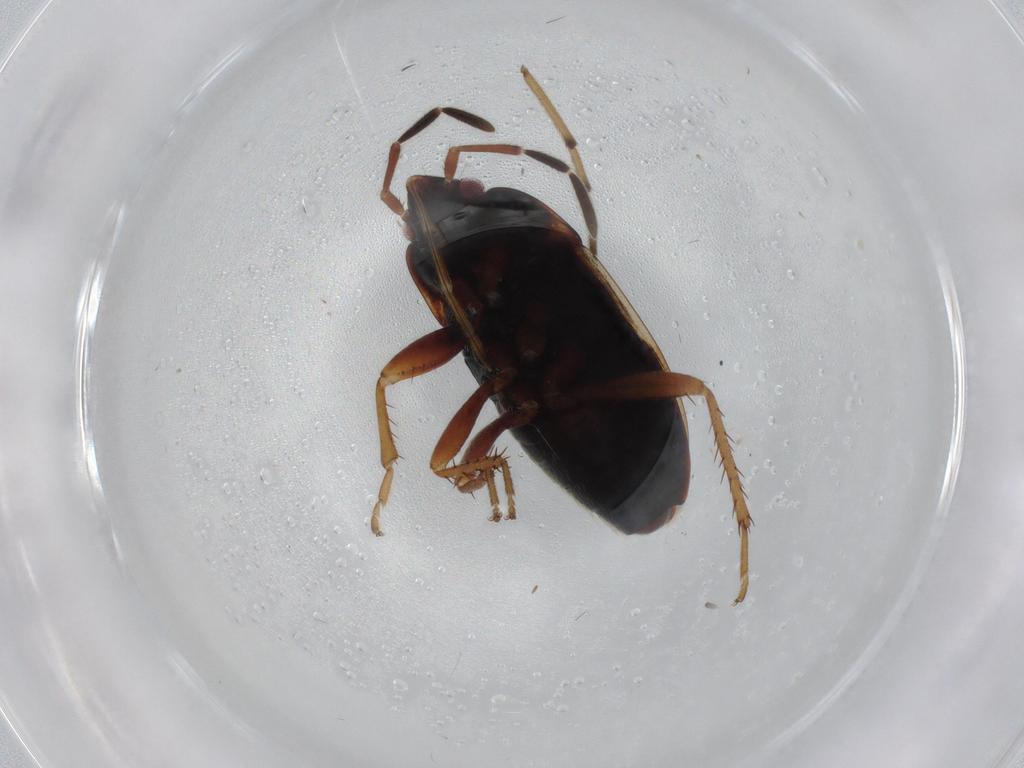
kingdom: Animalia
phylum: Arthropoda
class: Insecta
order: Hemiptera
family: Rhyparochromidae
